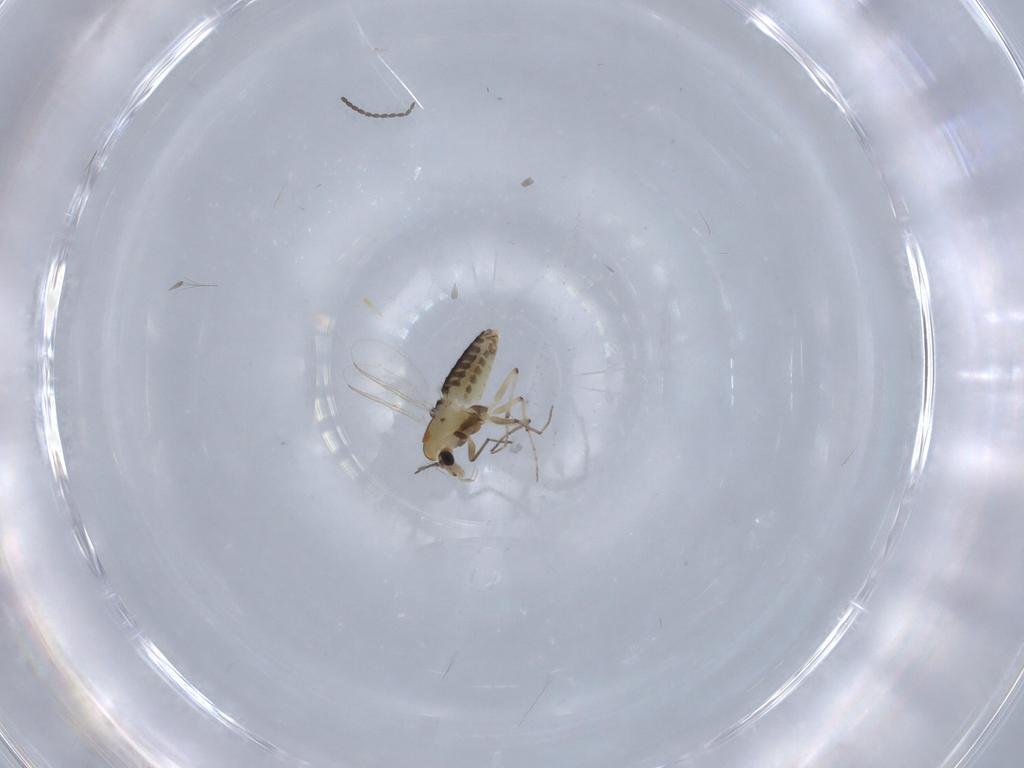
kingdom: Animalia
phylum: Arthropoda
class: Insecta
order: Diptera
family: Chironomidae
